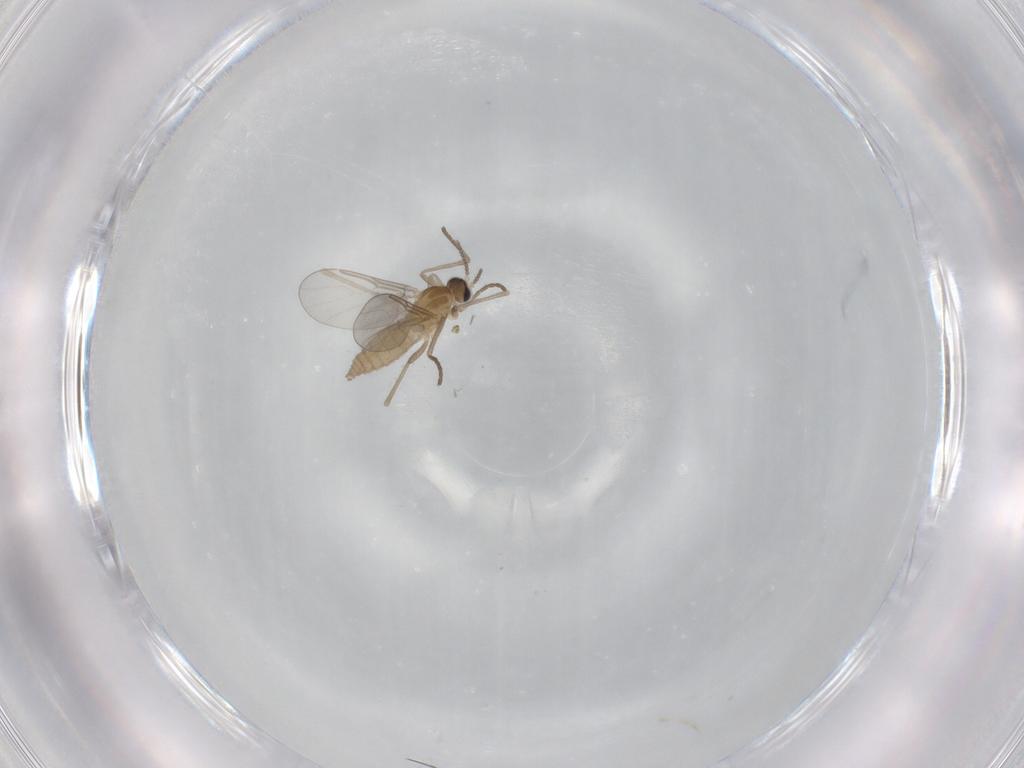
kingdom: Animalia
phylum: Arthropoda
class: Insecta
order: Diptera
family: Cecidomyiidae
